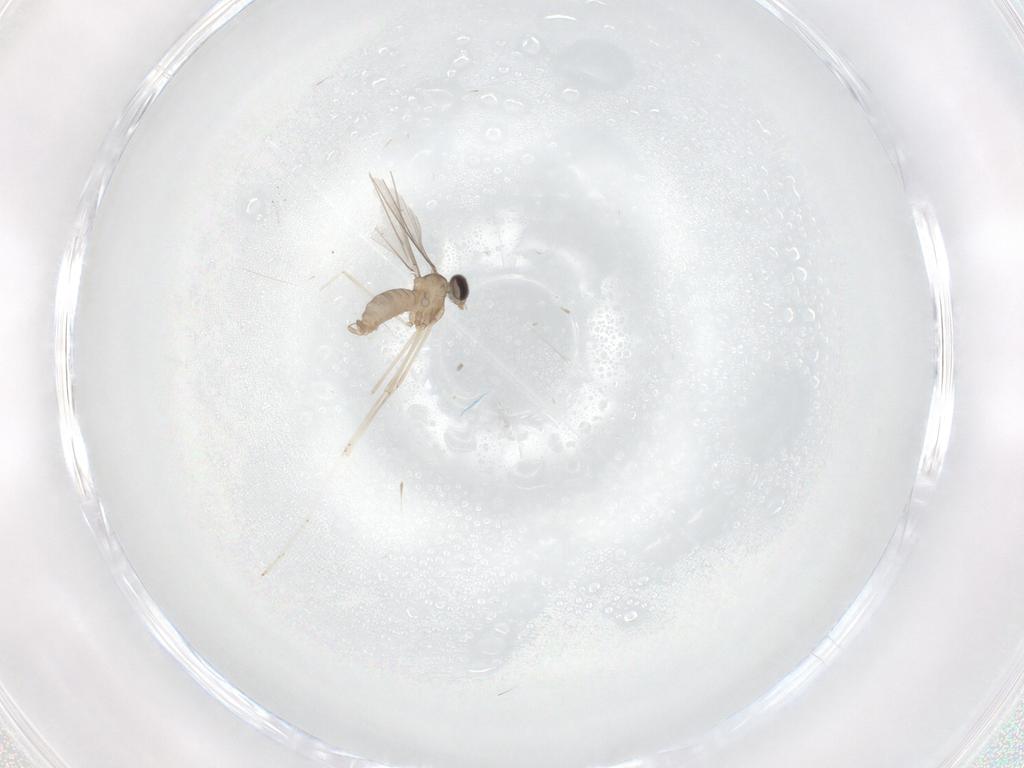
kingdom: Animalia
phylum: Arthropoda
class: Insecta
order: Diptera
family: Cecidomyiidae
